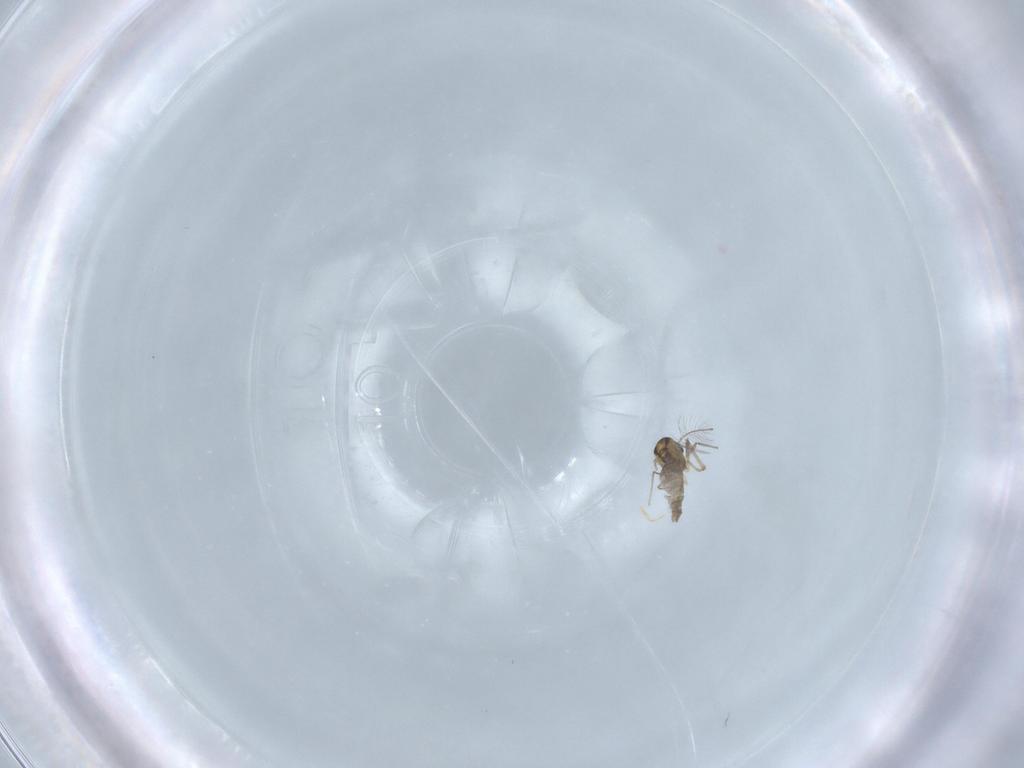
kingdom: Animalia
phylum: Arthropoda
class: Insecta
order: Diptera
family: Chironomidae
